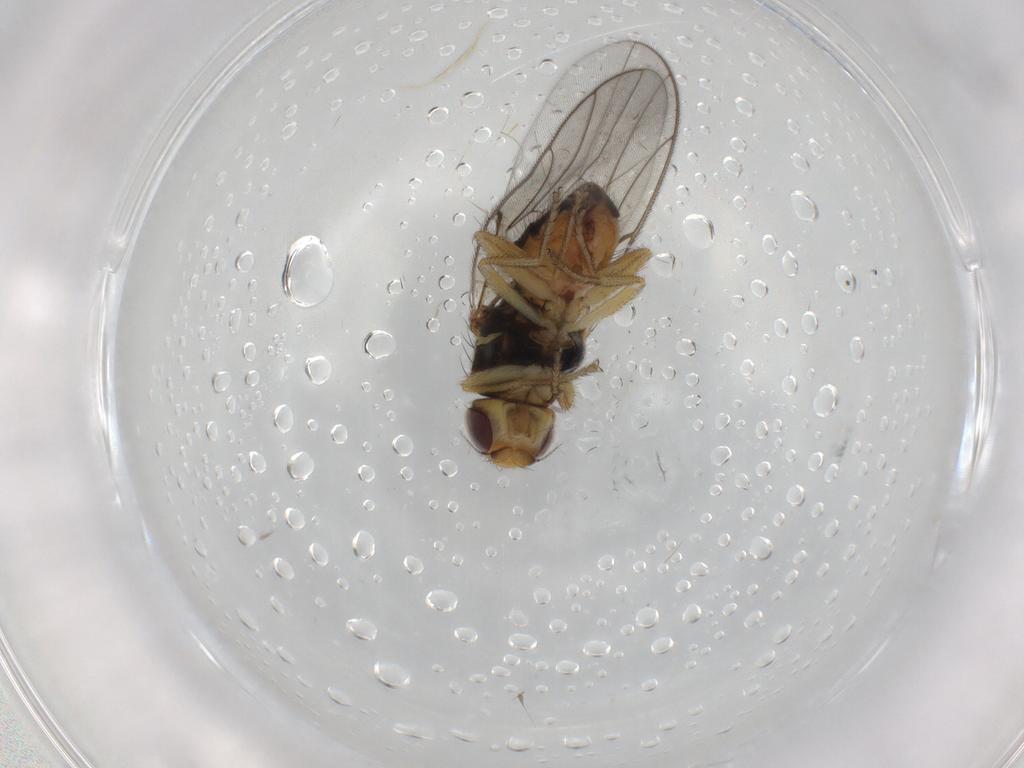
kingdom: Animalia
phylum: Arthropoda
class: Insecta
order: Diptera
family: Chloropidae
